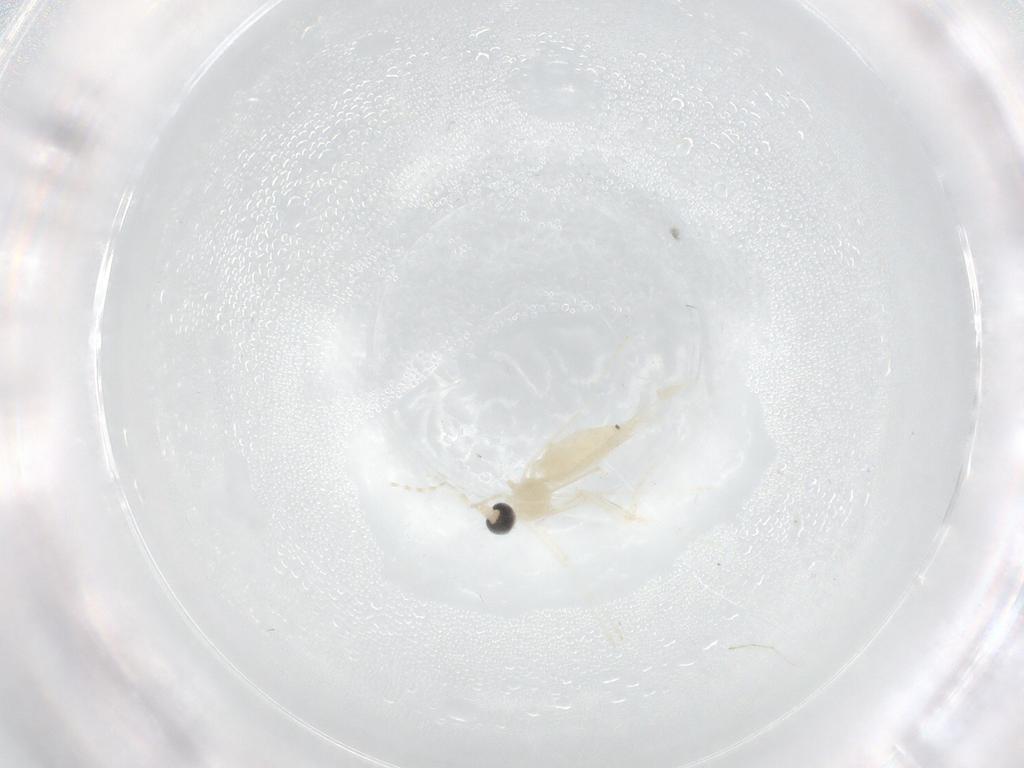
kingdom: Animalia
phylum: Arthropoda
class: Insecta
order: Diptera
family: Cecidomyiidae
